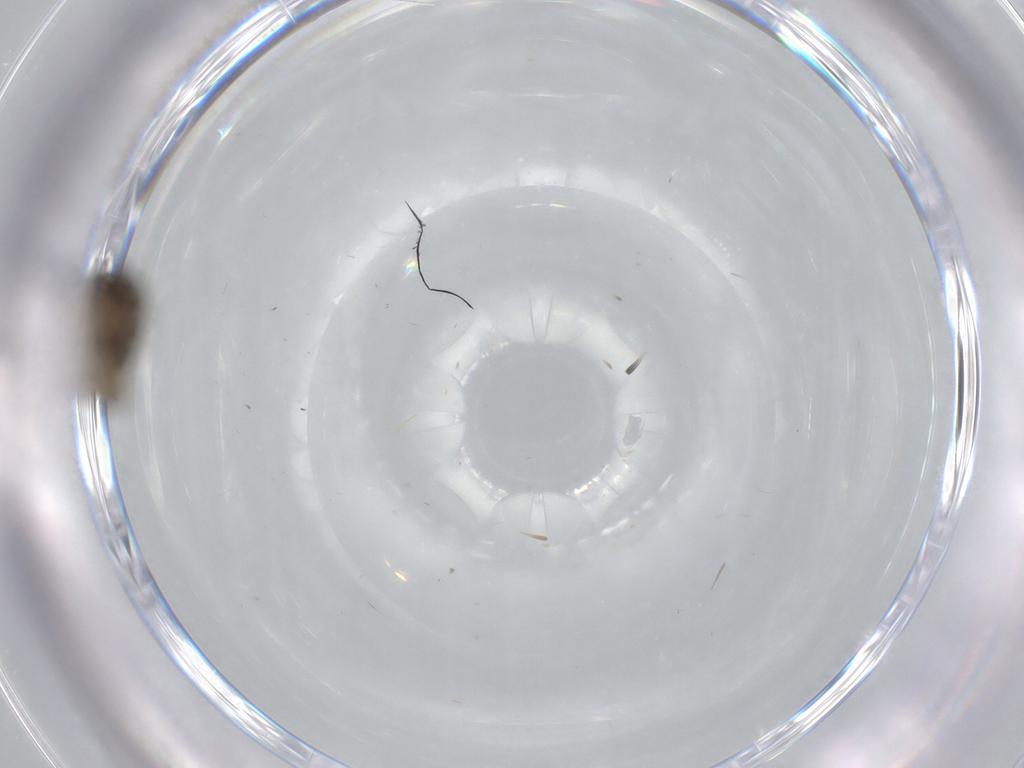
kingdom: Animalia
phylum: Arthropoda
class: Insecta
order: Diptera
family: Phoridae
